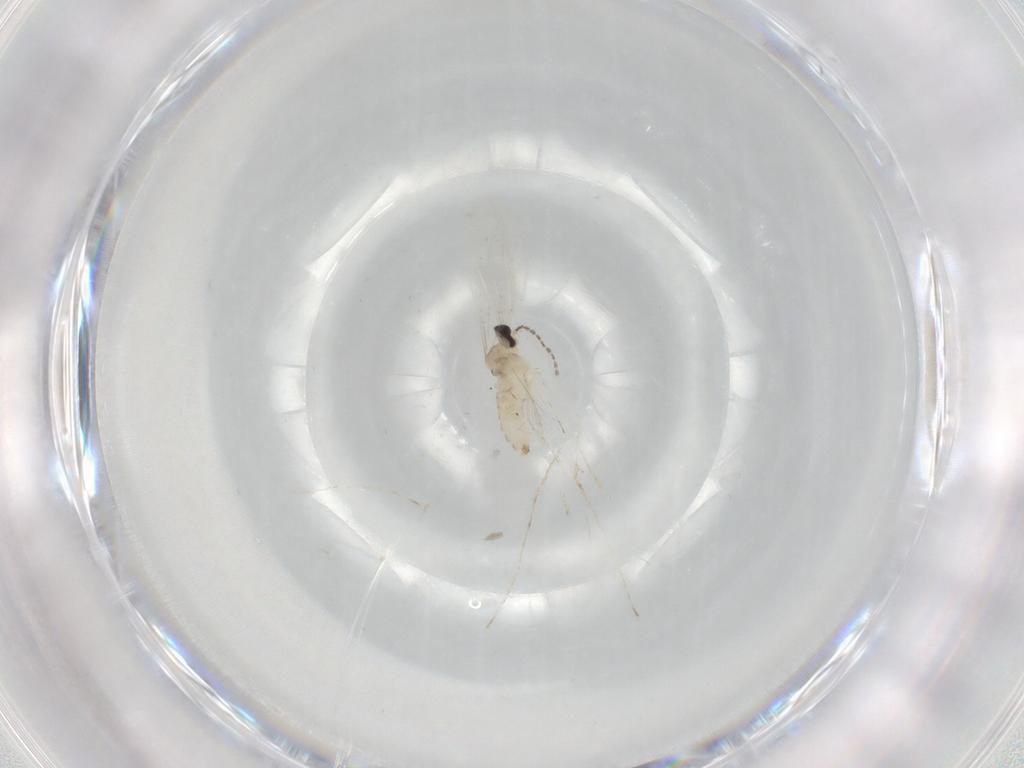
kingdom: Animalia
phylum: Arthropoda
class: Insecta
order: Diptera
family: Cecidomyiidae
